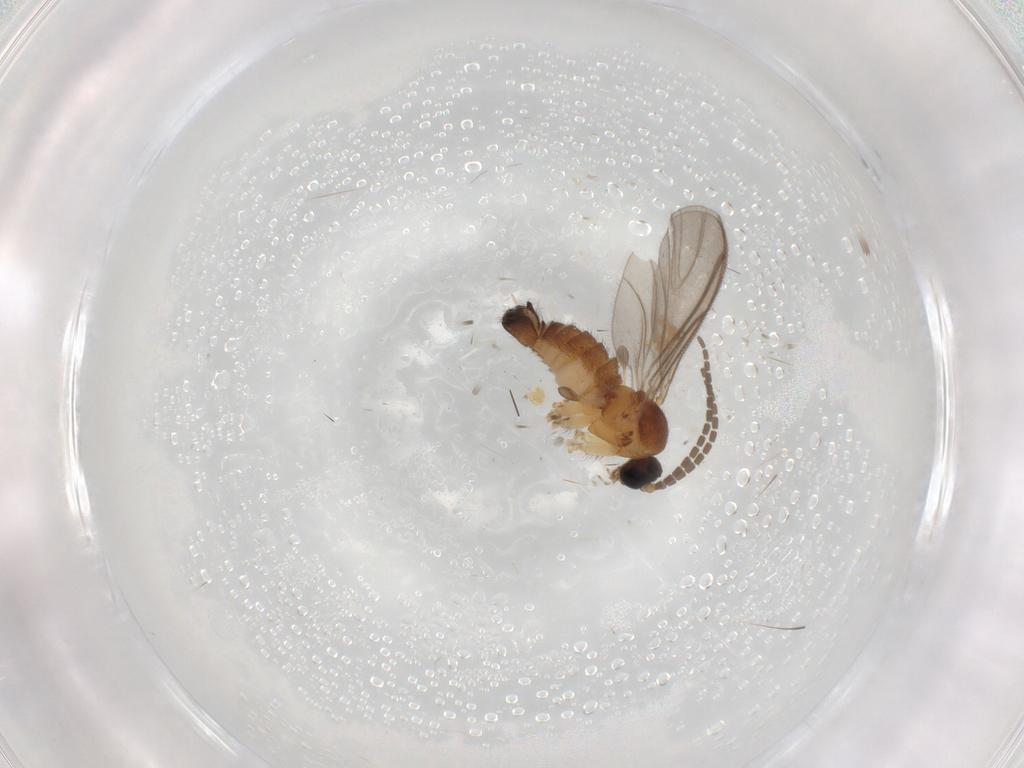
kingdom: Animalia
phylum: Arthropoda
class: Insecta
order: Diptera
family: Sciaridae
